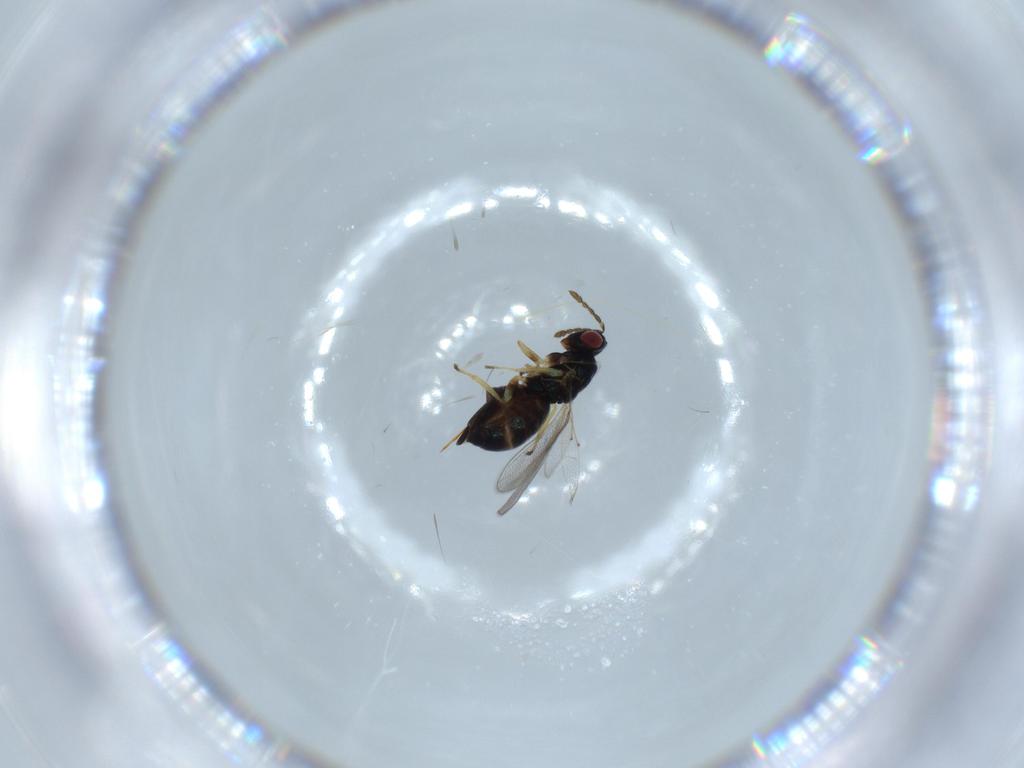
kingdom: Animalia
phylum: Arthropoda
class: Insecta
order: Hymenoptera
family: Eulophidae
